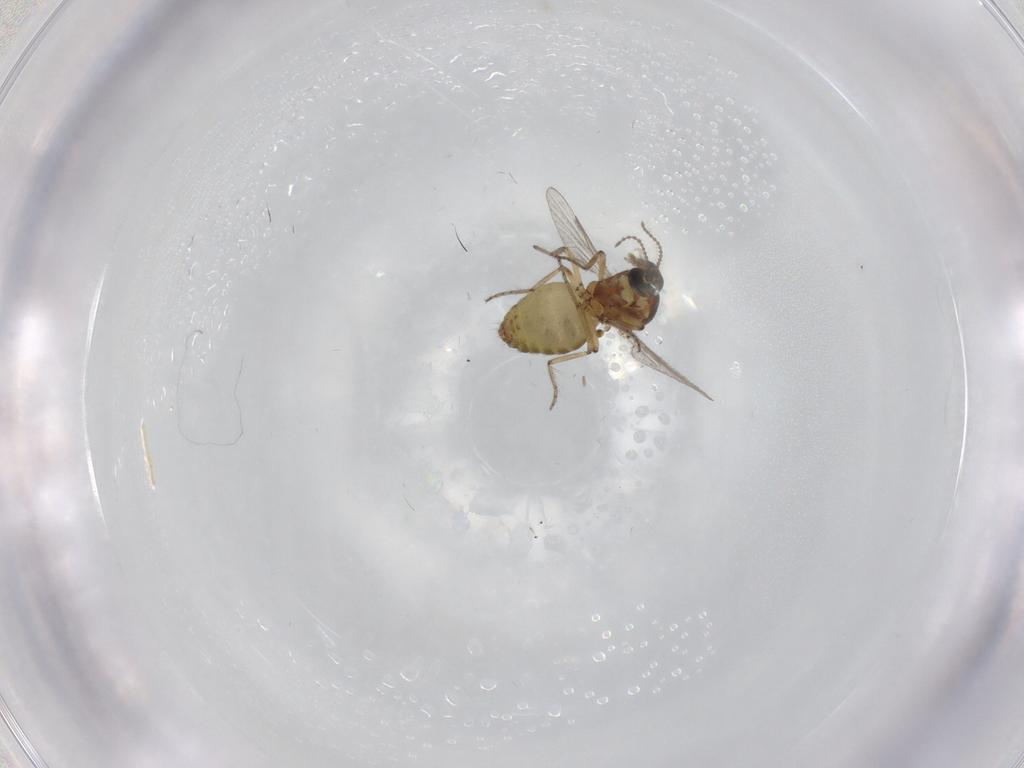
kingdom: Animalia
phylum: Arthropoda
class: Insecta
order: Diptera
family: Ceratopogonidae
